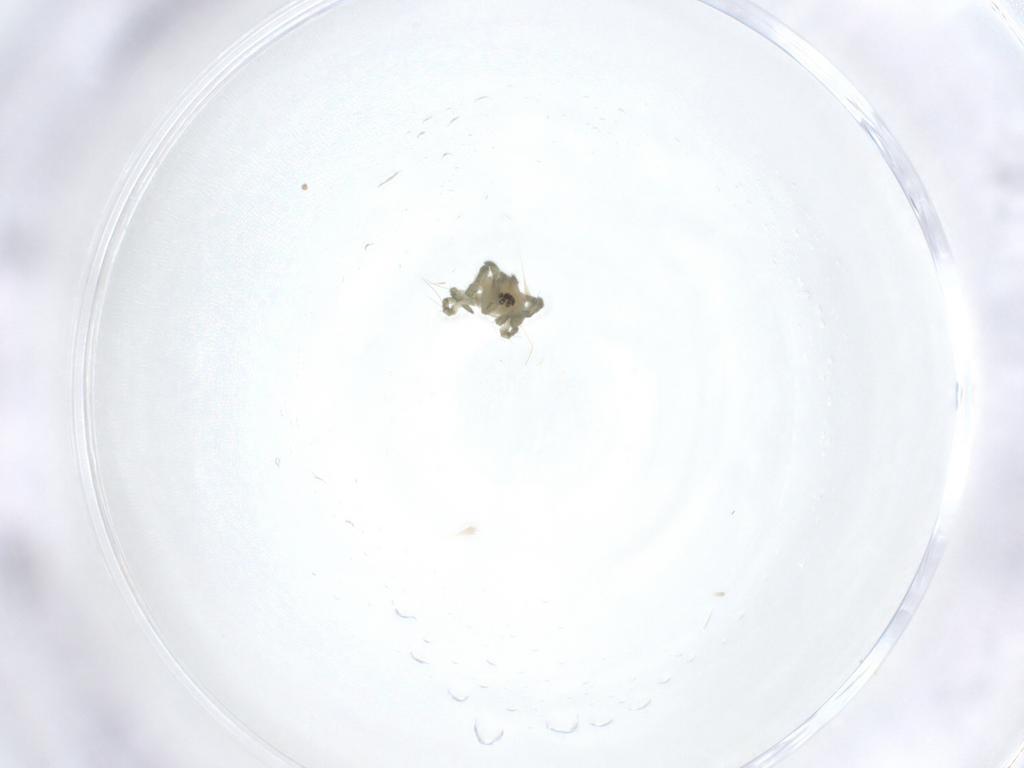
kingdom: Animalia
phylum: Arthropoda
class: Arachnida
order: Araneae
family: Tetragnathidae
